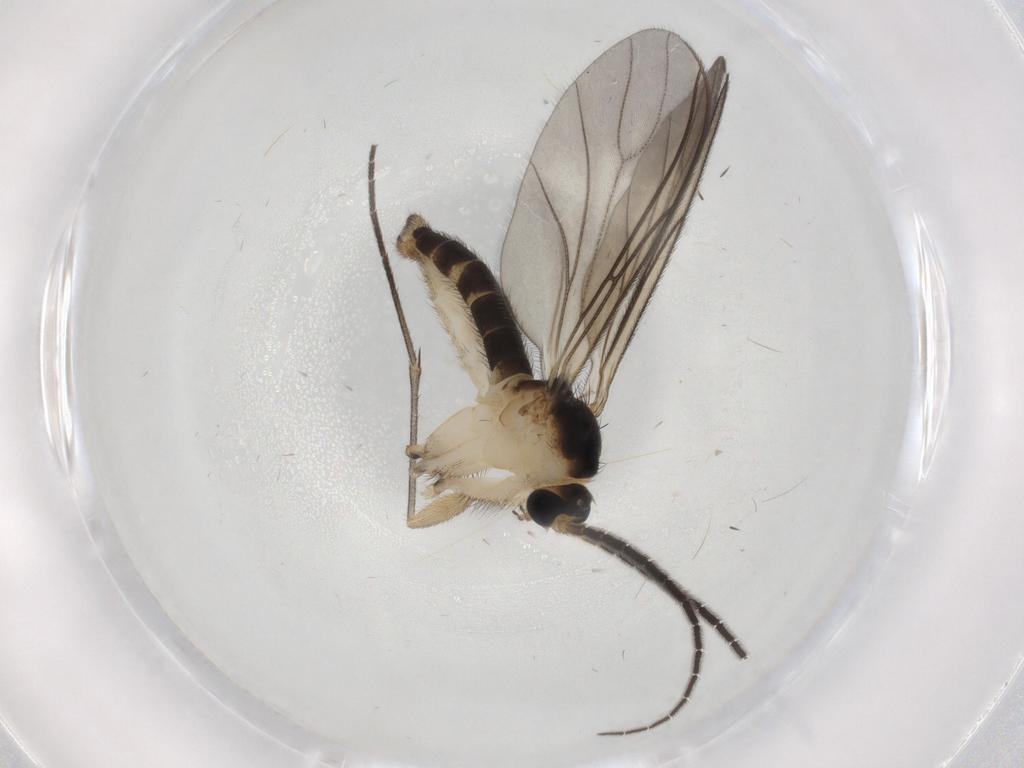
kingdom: Animalia
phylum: Arthropoda
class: Insecta
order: Diptera
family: Sciaridae
